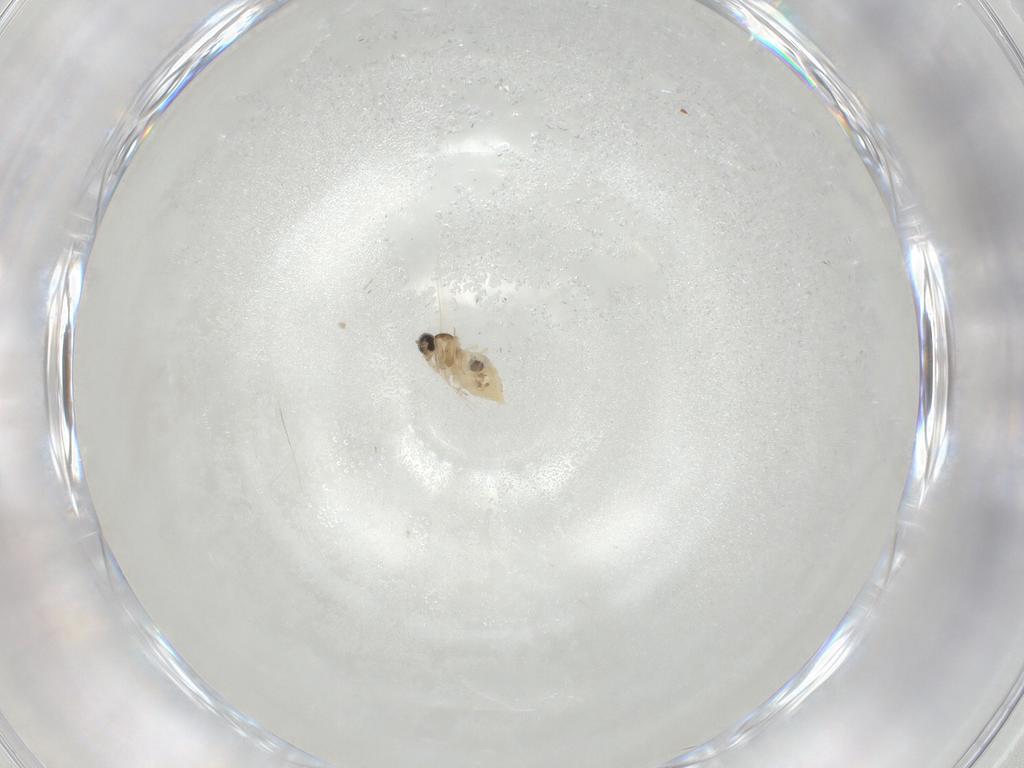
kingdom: Animalia
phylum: Arthropoda
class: Insecta
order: Diptera
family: Cecidomyiidae
